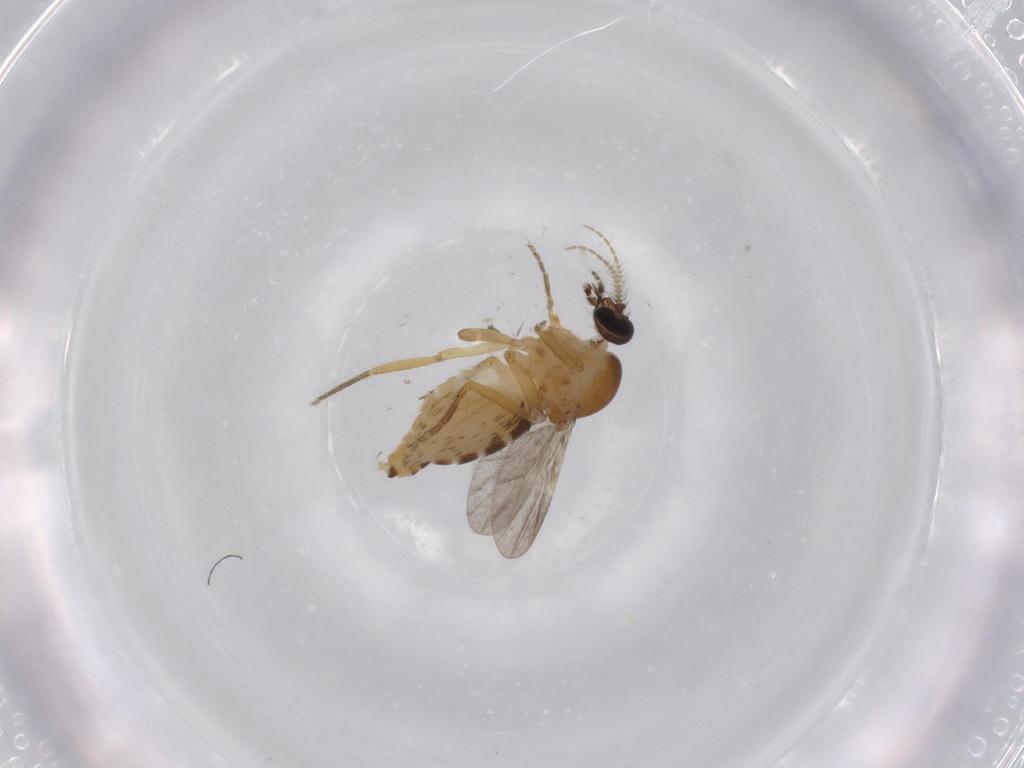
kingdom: Animalia
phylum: Arthropoda
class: Insecta
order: Diptera
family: Ceratopogonidae
